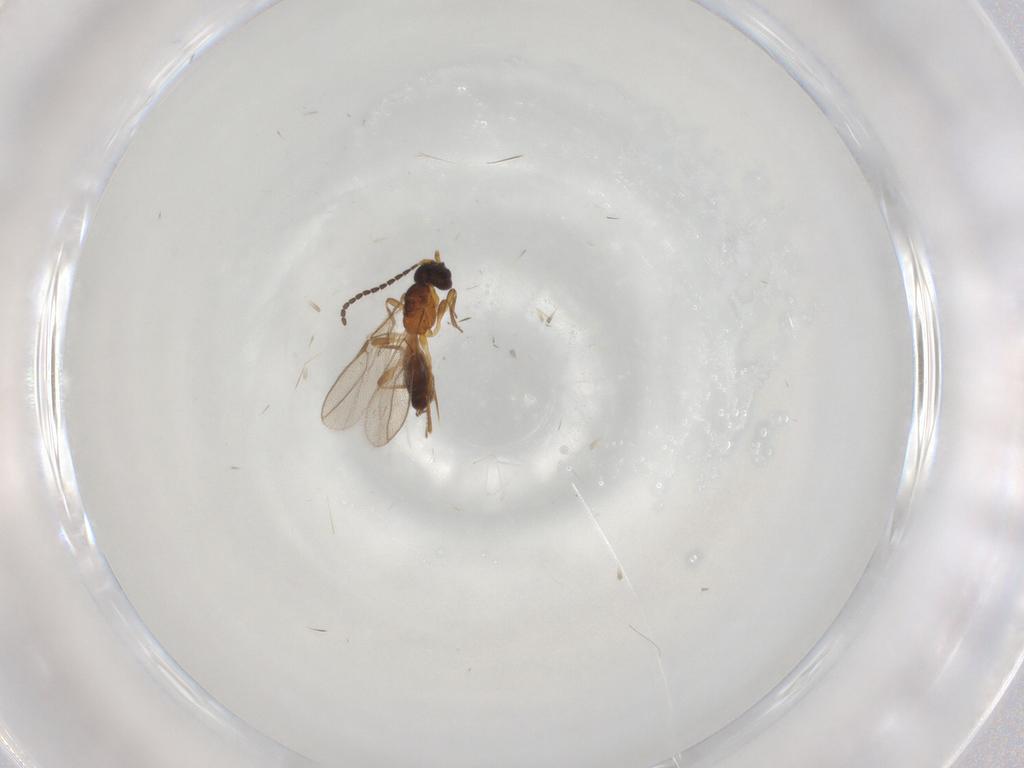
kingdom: Animalia
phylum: Arthropoda
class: Insecta
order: Hymenoptera
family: Braconidae
